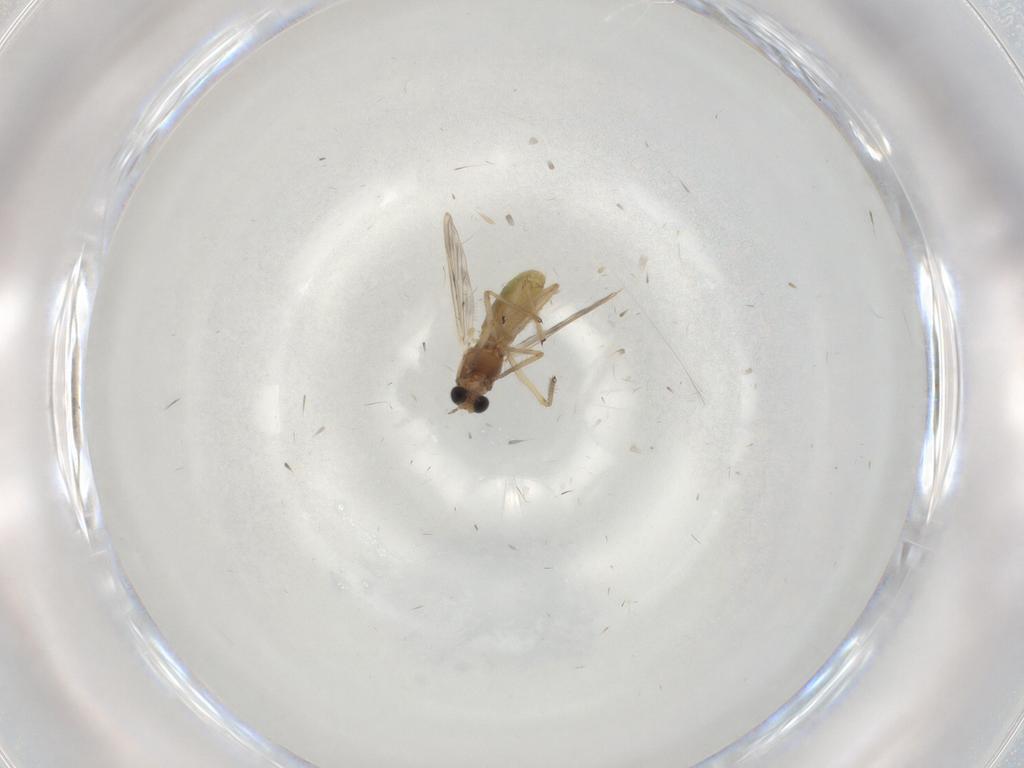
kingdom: Animalia
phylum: Arthropoda
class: Insecta
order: Diptera
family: Chironomidae
